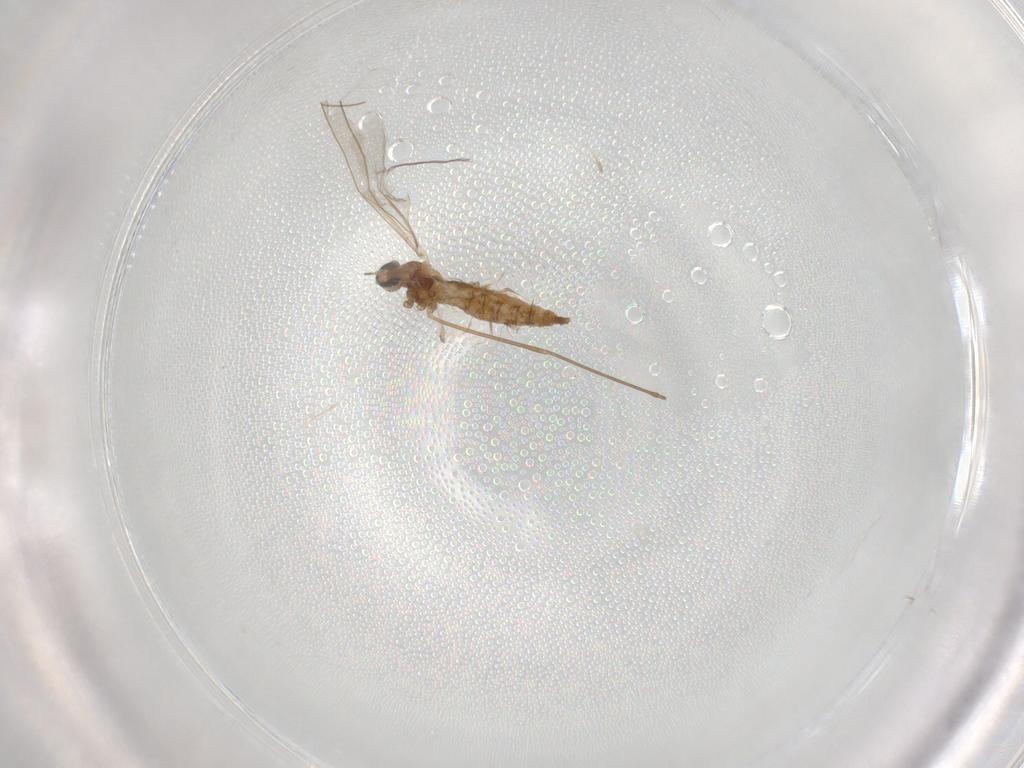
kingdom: Animalia
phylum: Arthropoda
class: Insecta
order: Diptera
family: Cecidomyiidae
